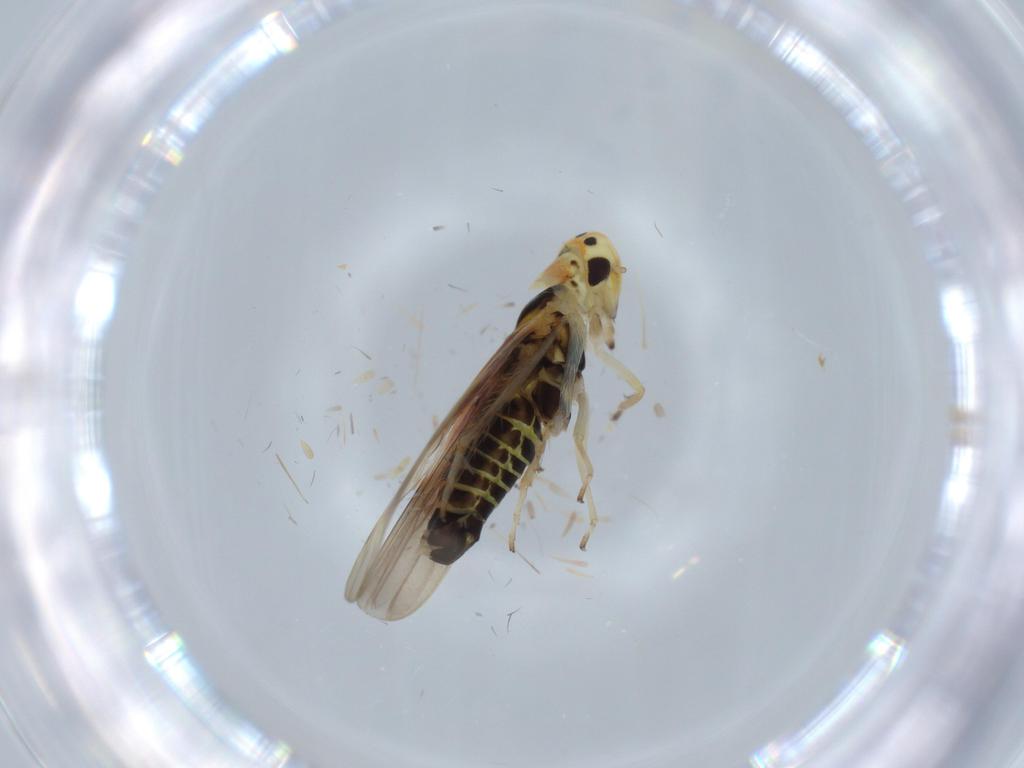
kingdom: Animalia
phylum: Arthropoda
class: Insecta
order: Hemiptera
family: Cicadellidae
